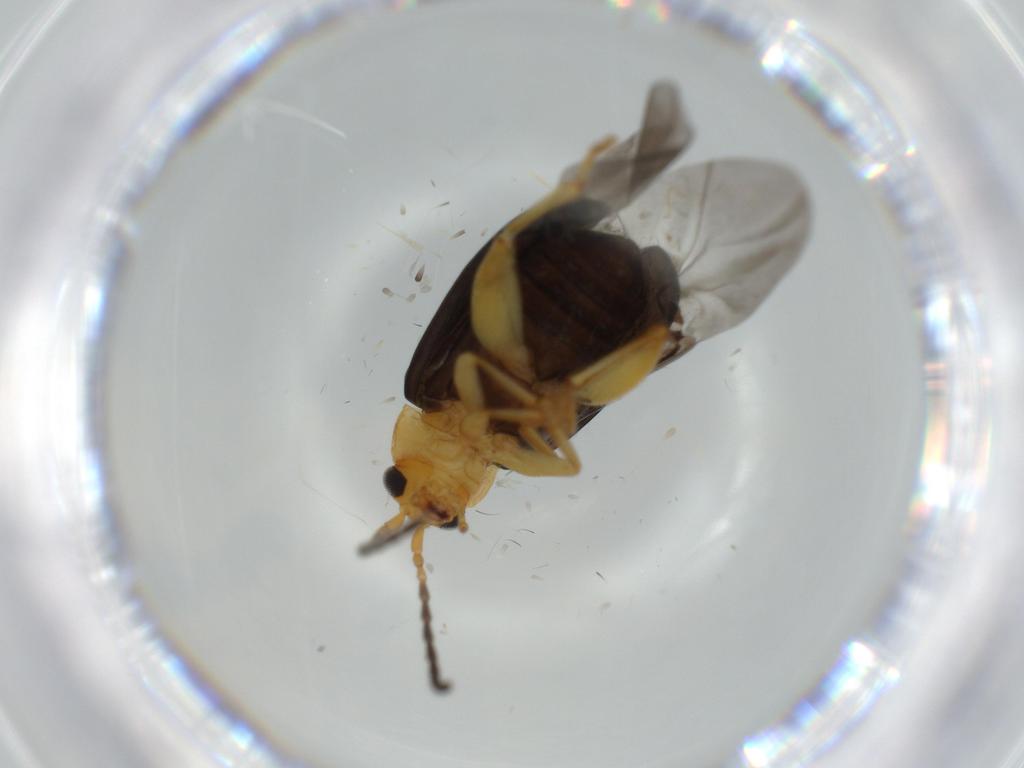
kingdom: Animalia
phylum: Arthropoda
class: Insecta
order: Coleoptera
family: Chrysomelidae
